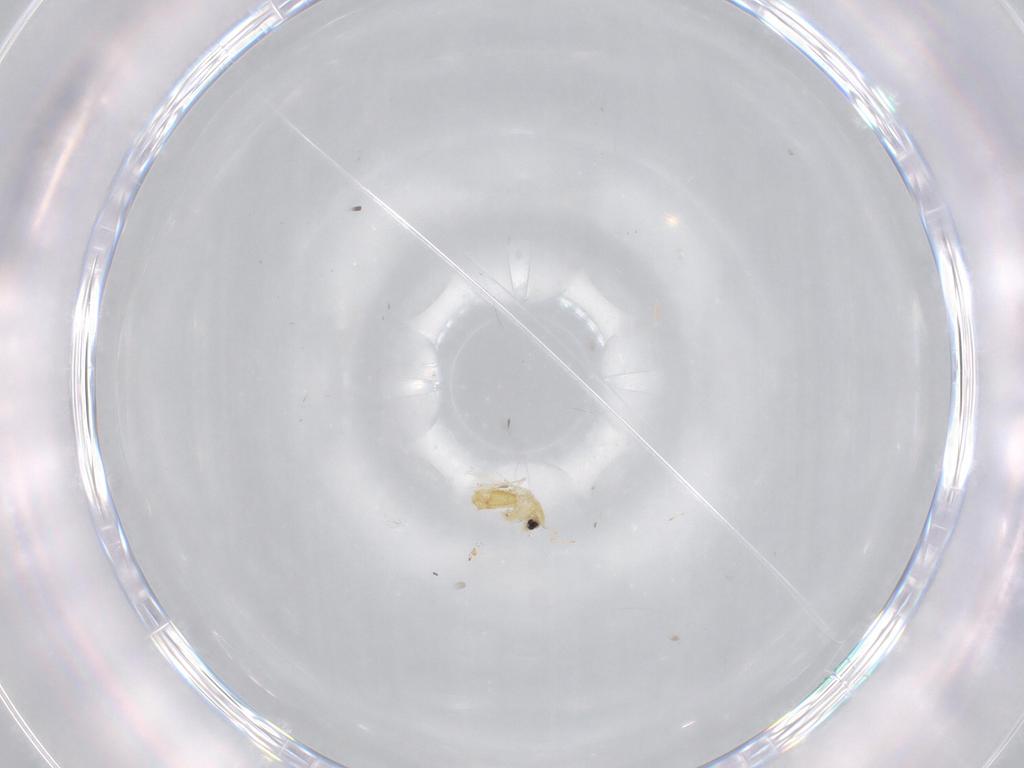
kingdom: Animalia
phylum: Arthropoda
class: Insecta
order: Diptera
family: Chironomidae
